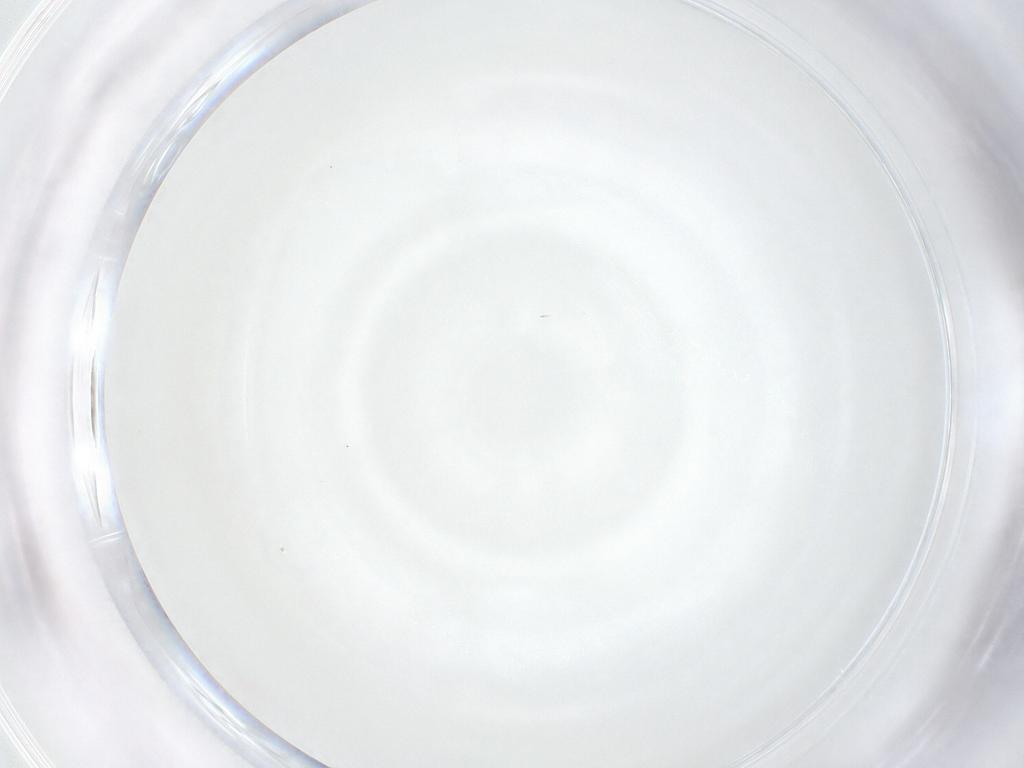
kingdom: Animalia
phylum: Arthropoda
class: Insecta
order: Diptera
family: Cecidomyiidae
